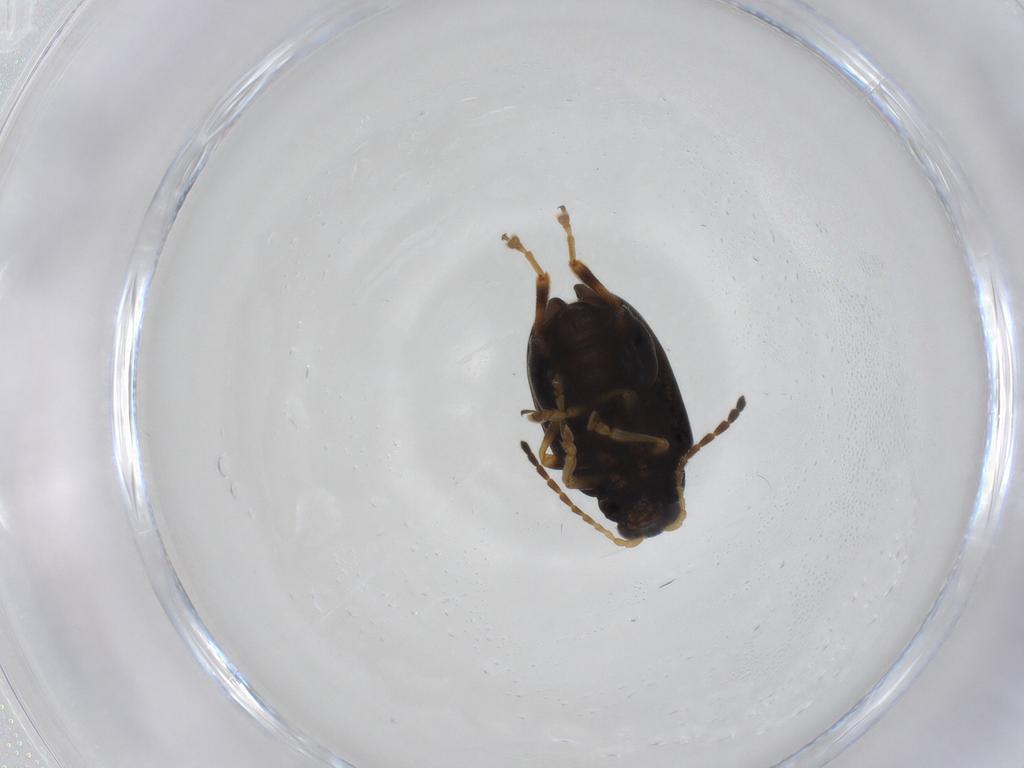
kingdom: Animalia
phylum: Arthropoda
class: Insecta
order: Coleoptera
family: Chrysomelidae
